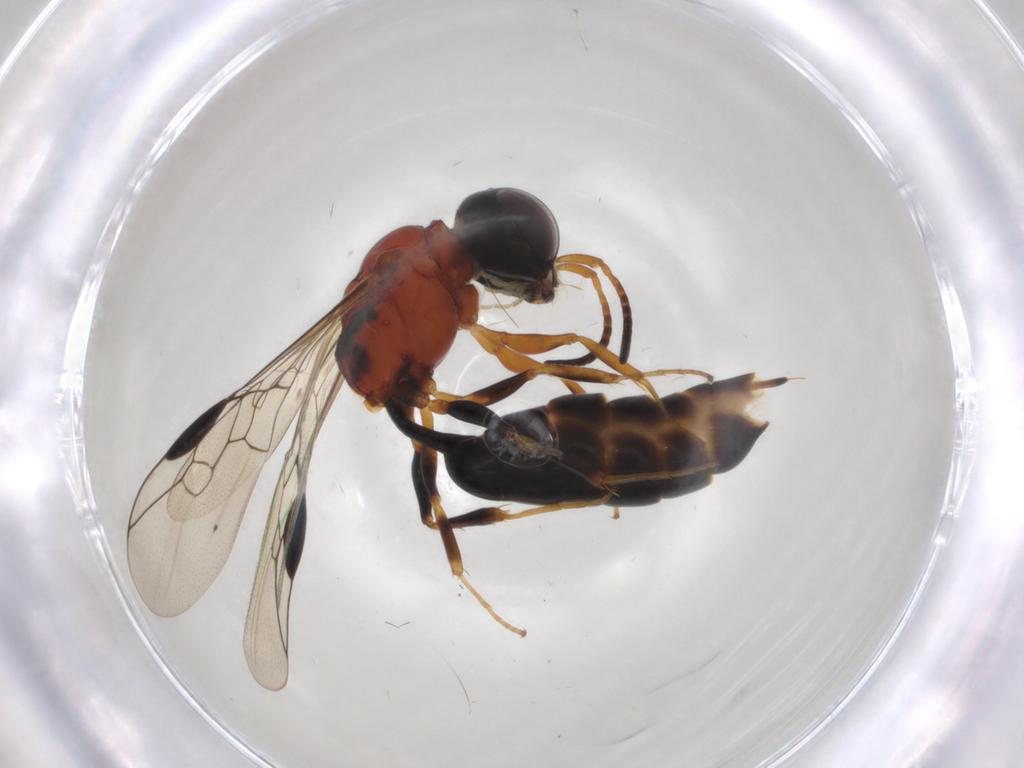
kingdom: Animalia
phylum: Arthropoda
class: Insecta
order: Hymenoptera
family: Pemphredonidae
